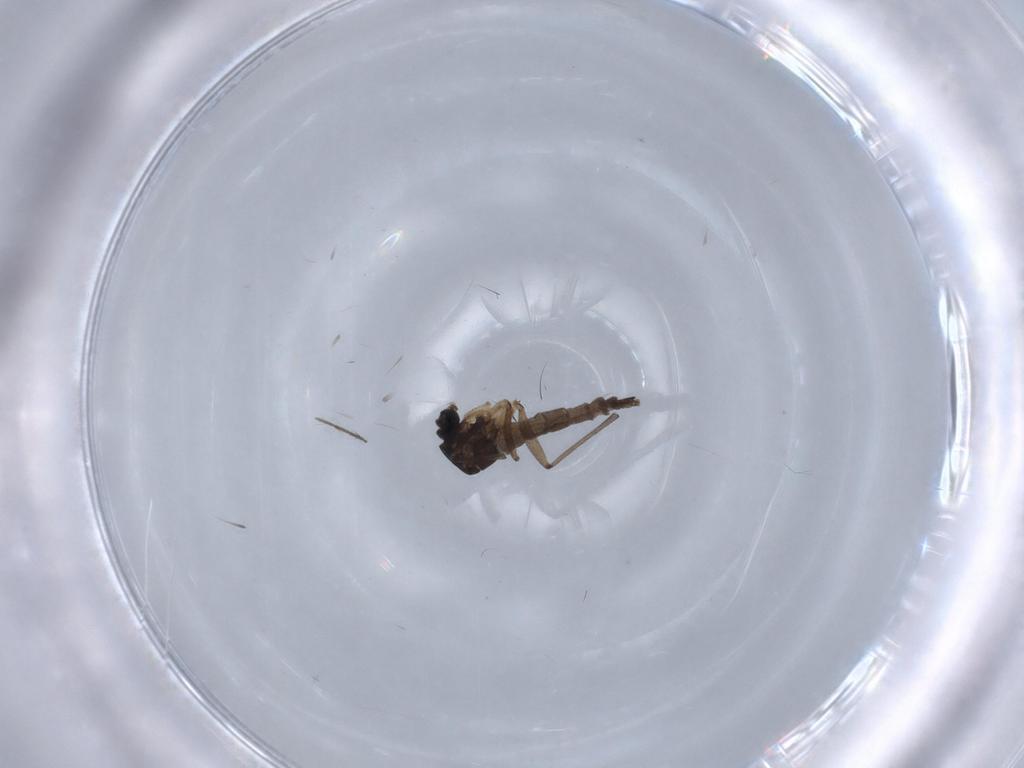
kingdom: Animalia
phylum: Arthropoda
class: Insecta
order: Diptera
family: Sciaridae
